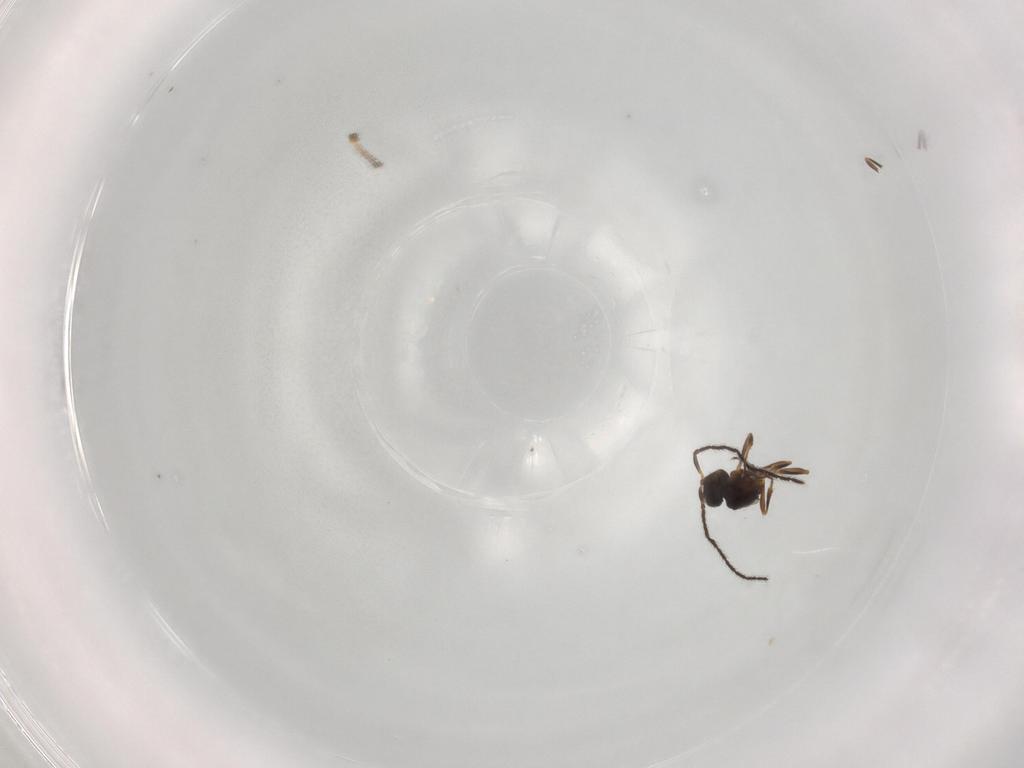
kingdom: Animalia
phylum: Arthropoda
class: Insecta
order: Hymenoptera
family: Scelionidae
